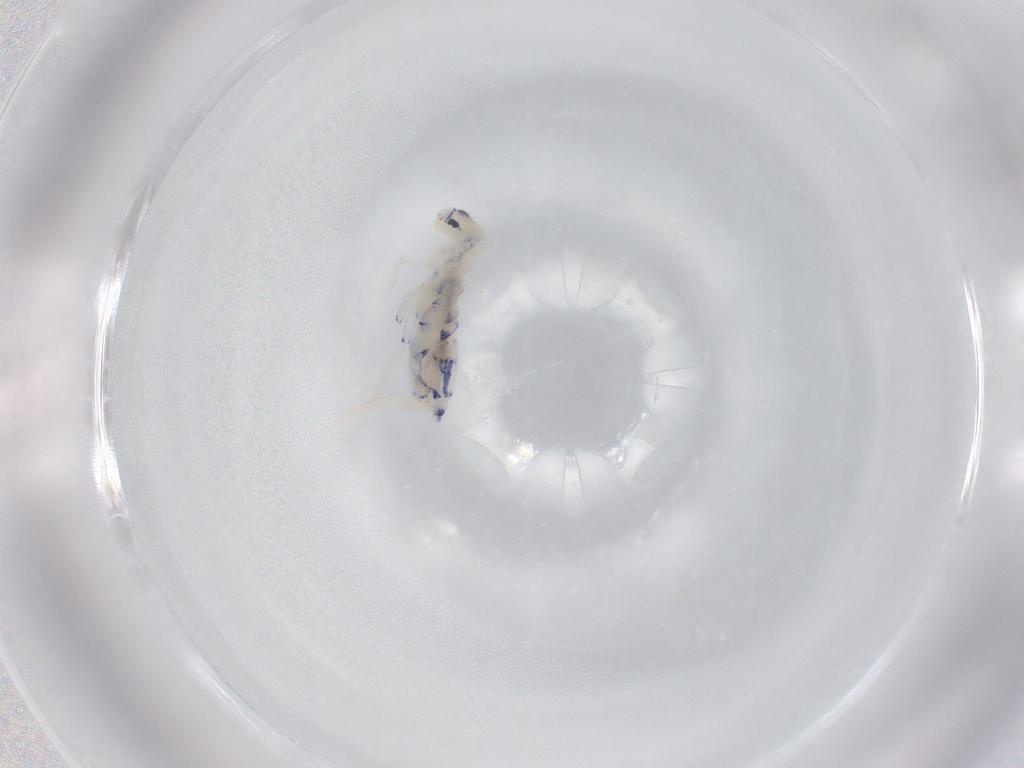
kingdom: Animalia
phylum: Arthropoda
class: Collembola
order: Entomobryomorpha
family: Entomobryidae
